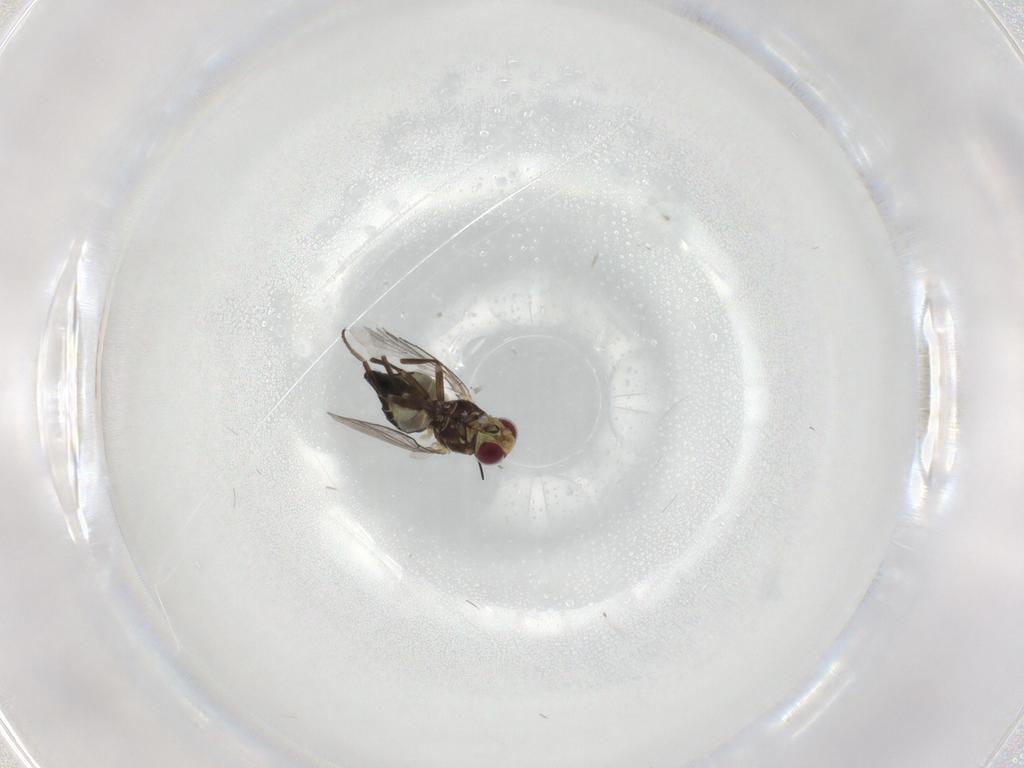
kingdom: Animalia
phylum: Arthropoda
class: Insecta
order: Diptera
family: Agromyzidae
